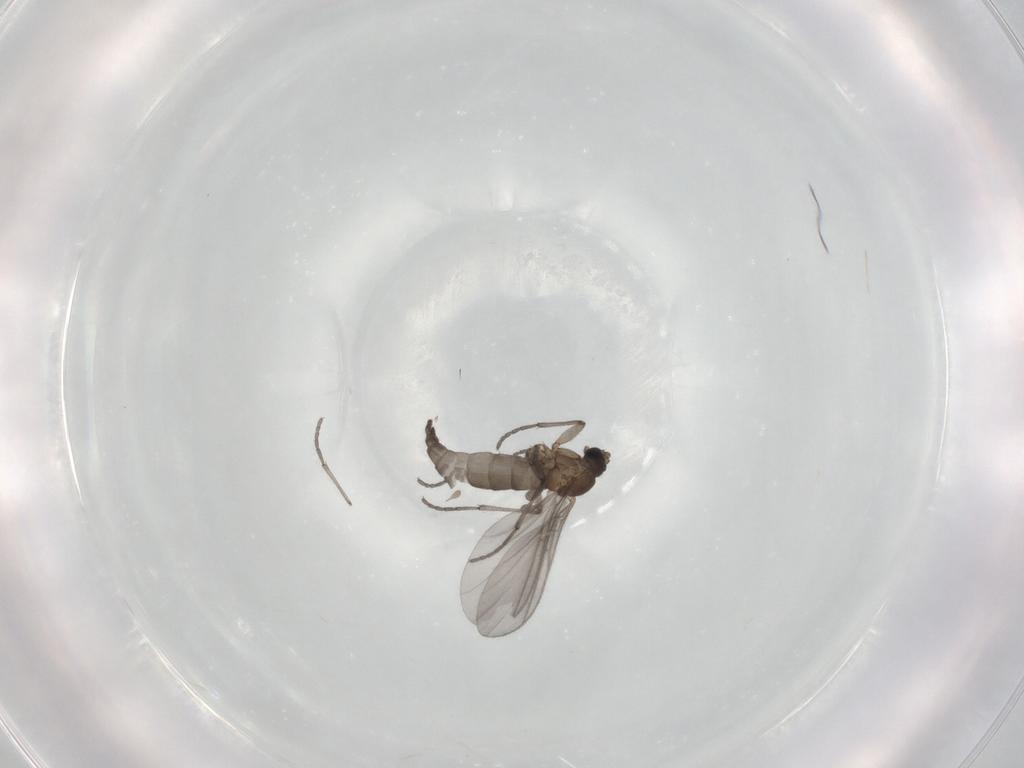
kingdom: Animalia
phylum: Arthropoda
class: Insecta
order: Diptera
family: Sciaridae
